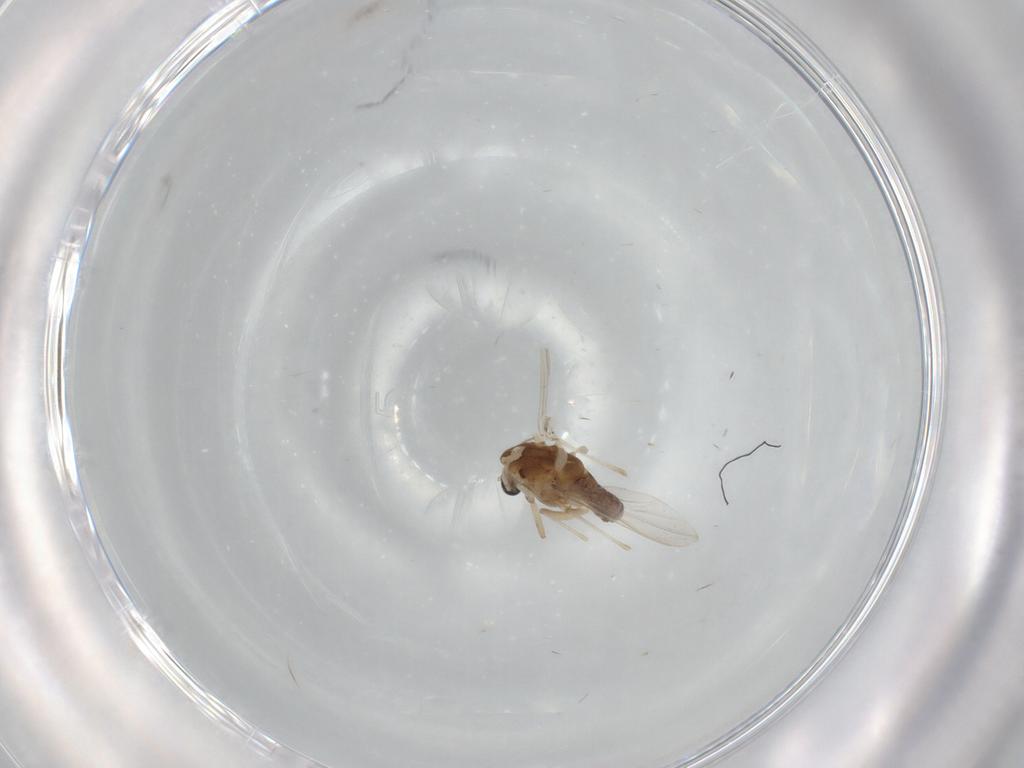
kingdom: Animalia
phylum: Arthropoda
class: Insecta
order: Diptera
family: Chironomidae
